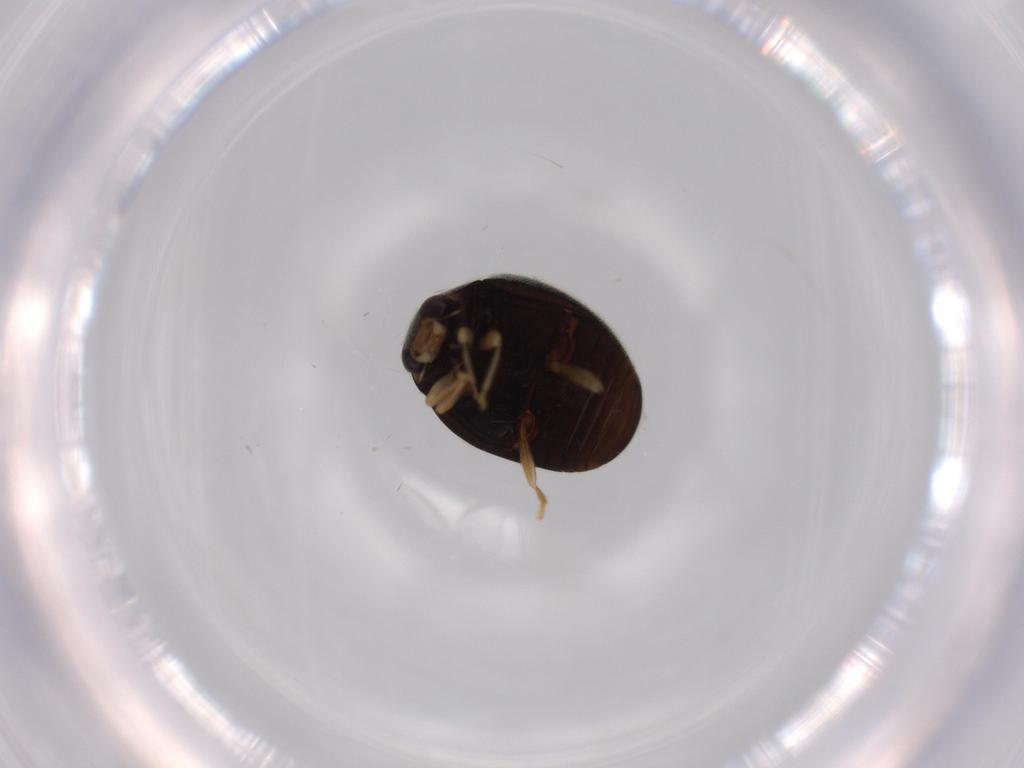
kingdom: Animalia
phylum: Arthropoda
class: Insecta
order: Coleoptera
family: Coccinellidae
